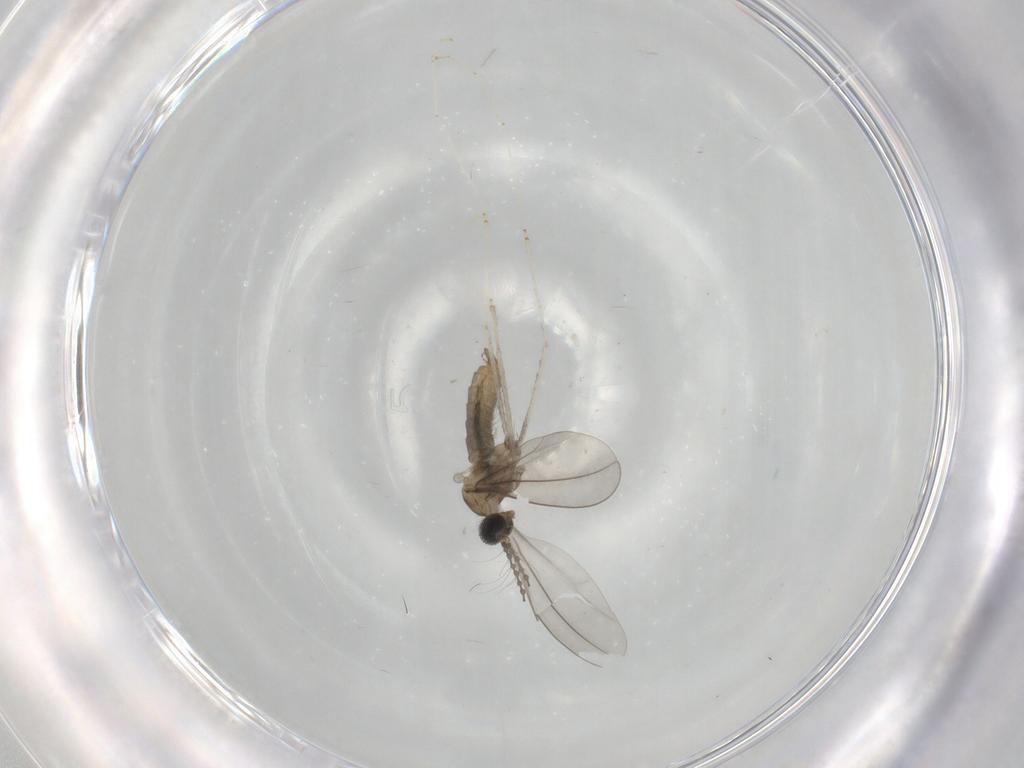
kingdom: Animalia
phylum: Arthropoda
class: Insecta
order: Diptera
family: Cecidomyiidae
